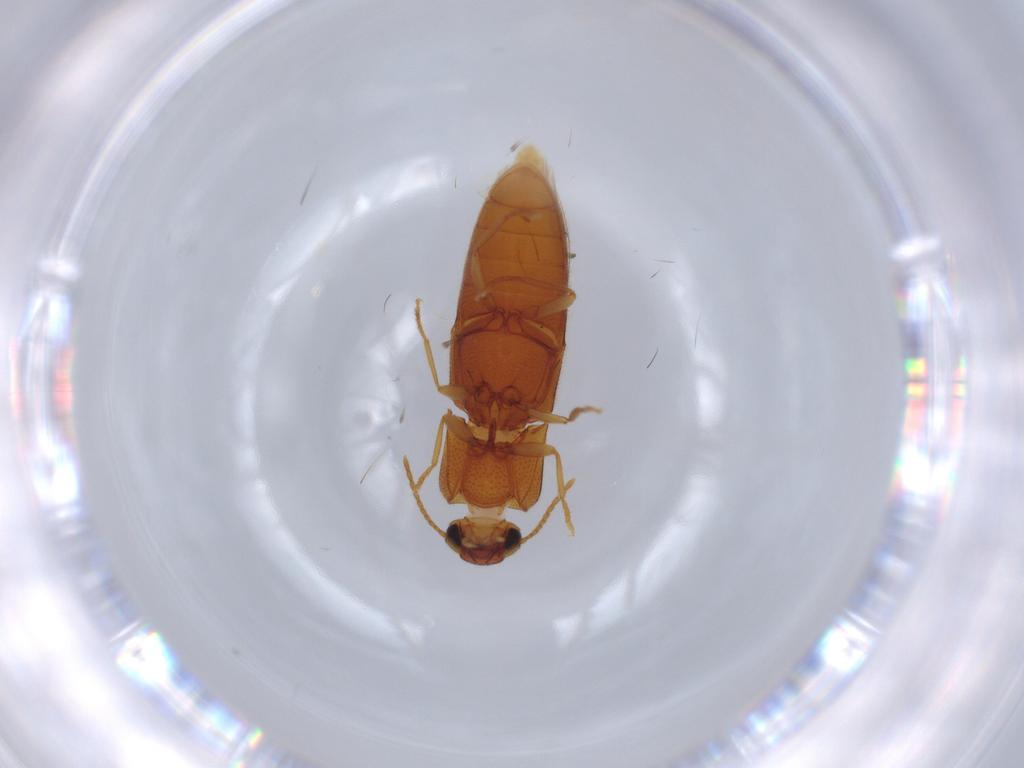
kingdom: Animalia
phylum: Arthropoda
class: Insecta
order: Coleoptera
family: Elateridae
